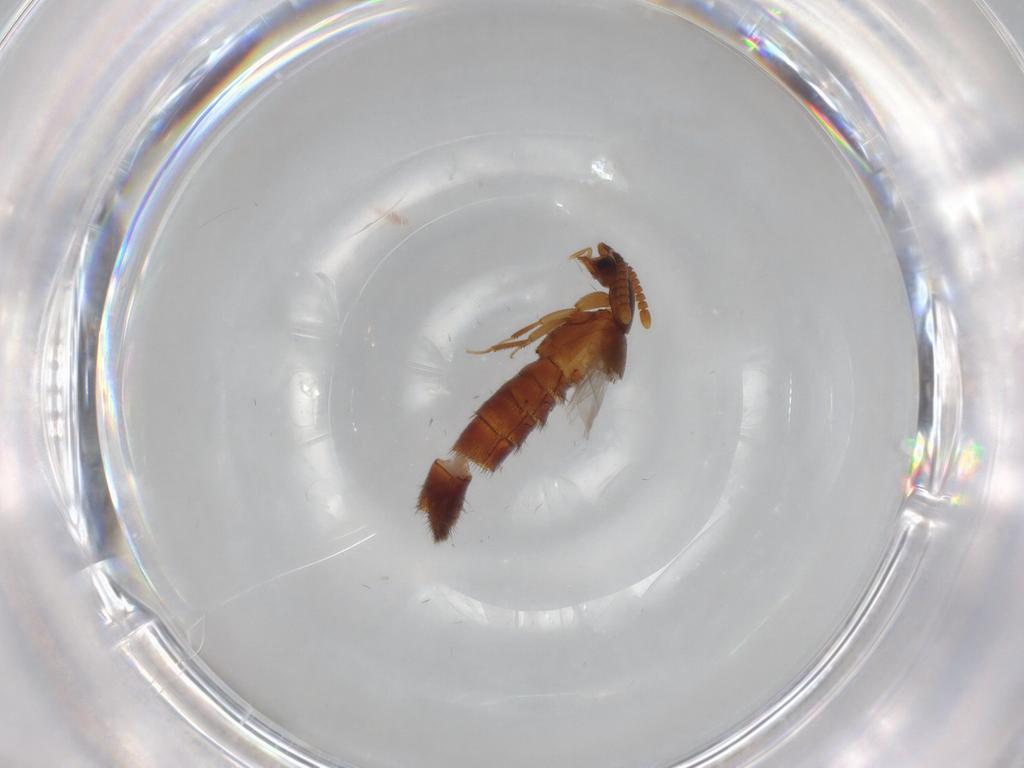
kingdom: Animalia
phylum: Arthropoda
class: Insecta
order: Coleoptera
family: Staphylinidae
